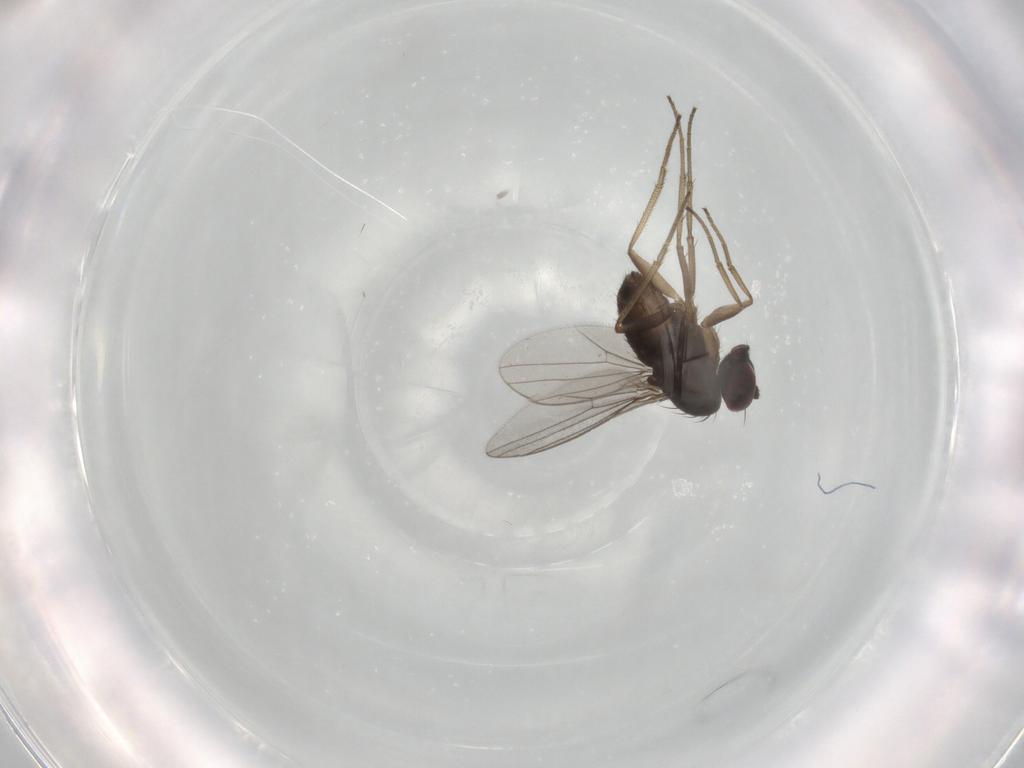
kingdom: Animalia
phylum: Arthropoda
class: Insecta
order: Diptera
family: Dolichopodidae
